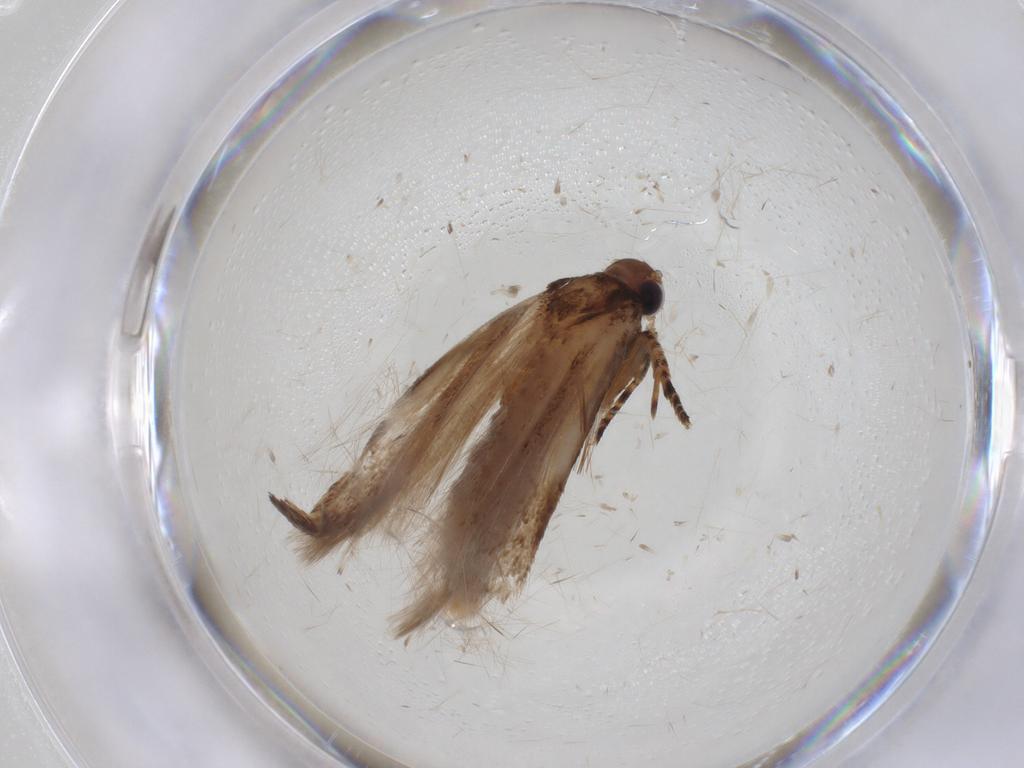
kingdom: Animalia
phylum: Arthropoda
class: Insecta
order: Lepidoptera
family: Gelechiidae
